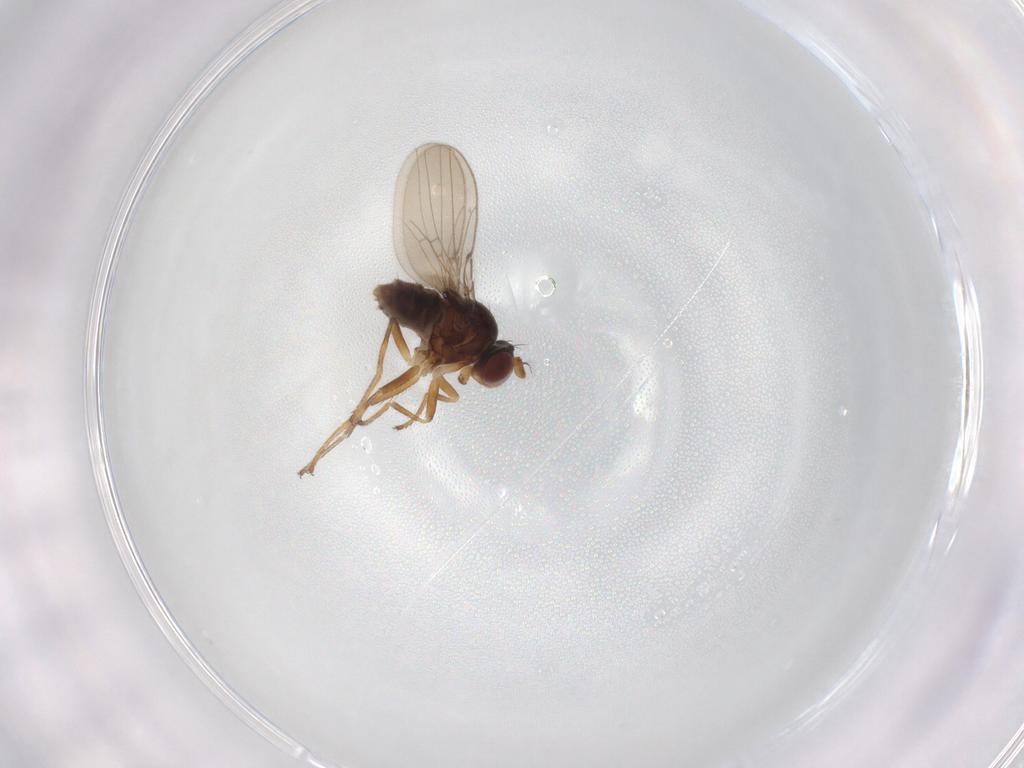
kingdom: Animalia
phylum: Arthropoda
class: Insecta
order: Diptera
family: Ephydridae
